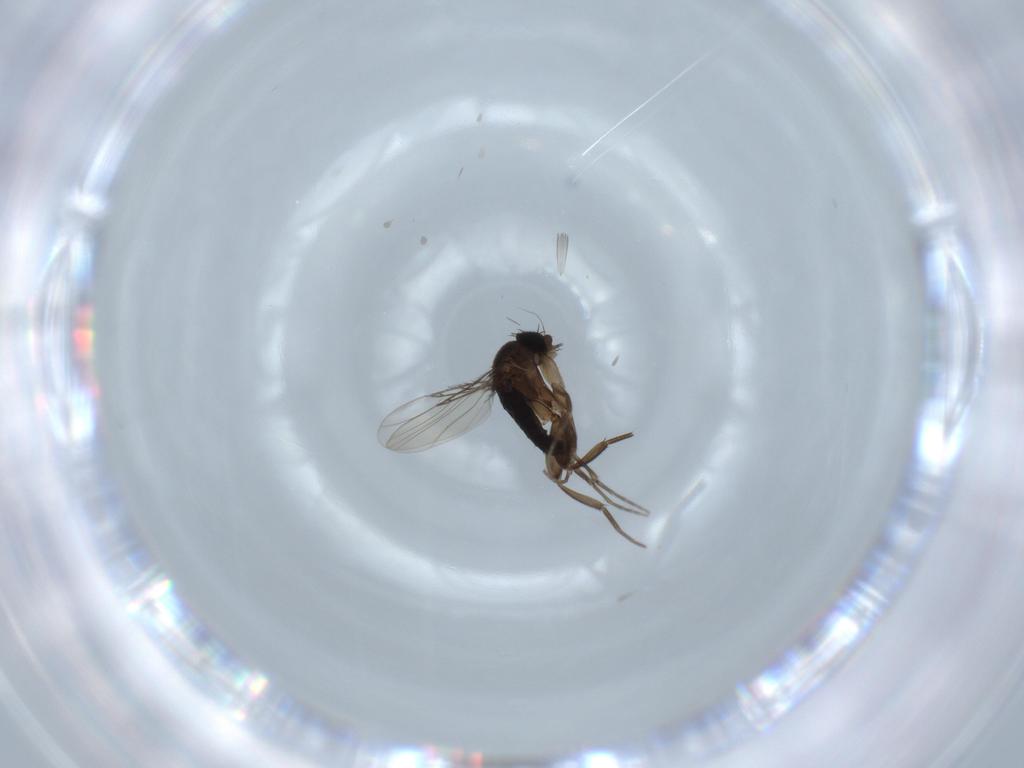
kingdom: Animalia
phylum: Arthropoda
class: Insecta
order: Diptera
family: Phoridae
